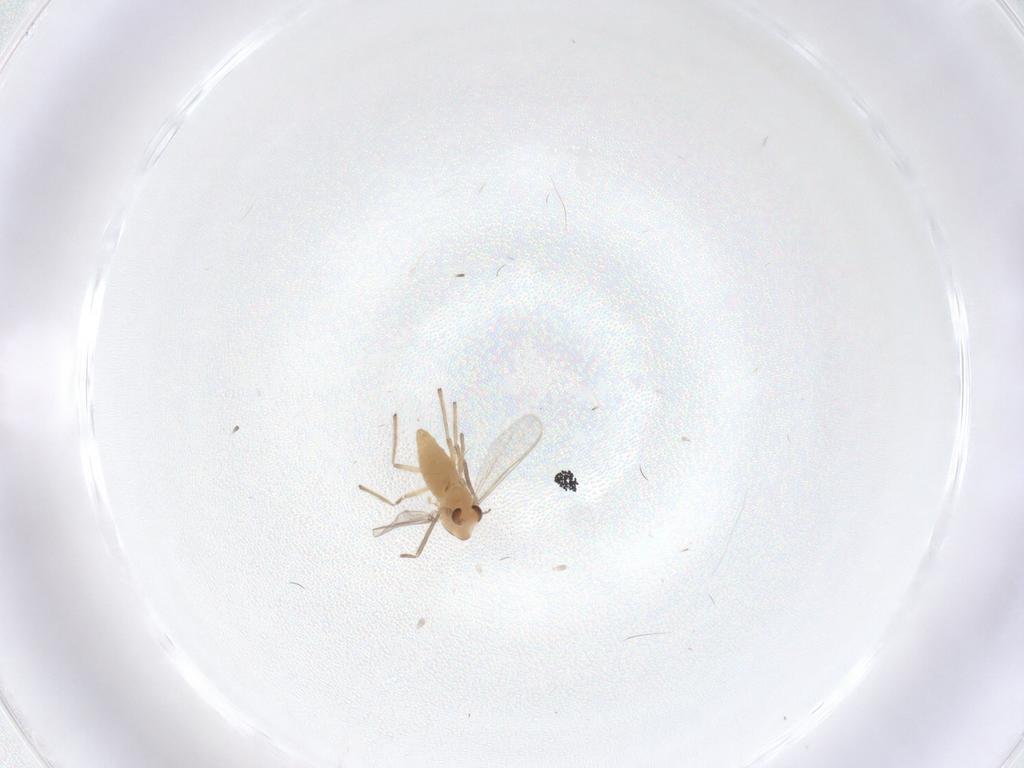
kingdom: Animalia
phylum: Arthropoda
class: Insecta
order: Diptera
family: Chironomidae
